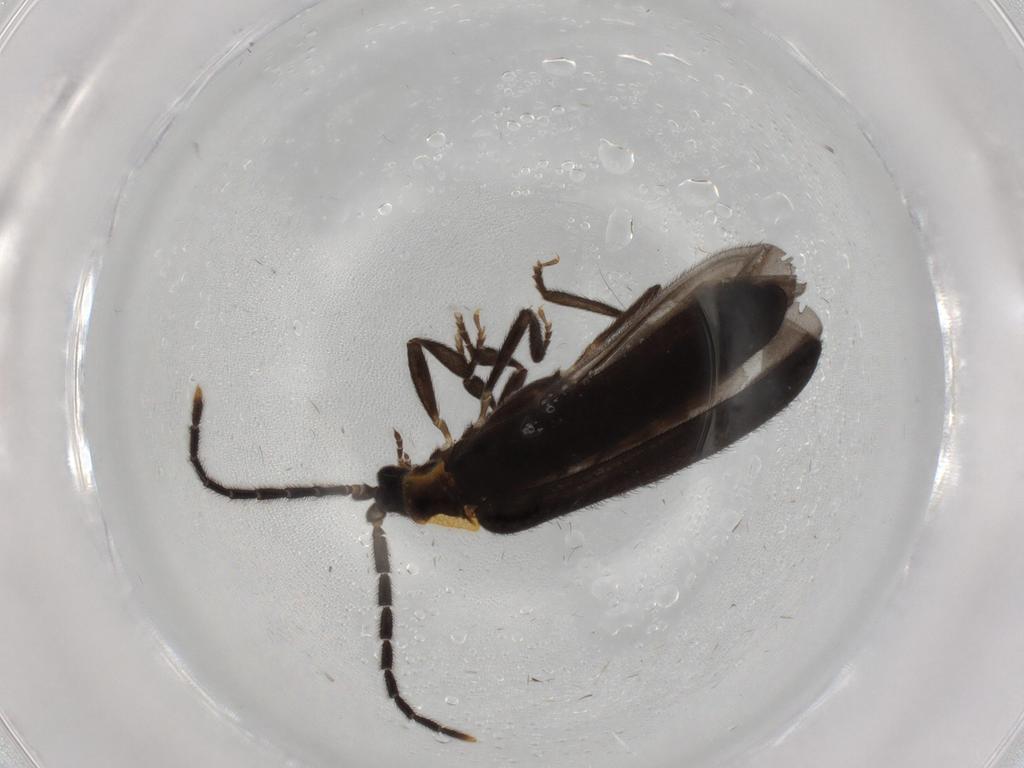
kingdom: Animalia
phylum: Arthropoda
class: Insecta
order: Coleoptera
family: Lycidae
